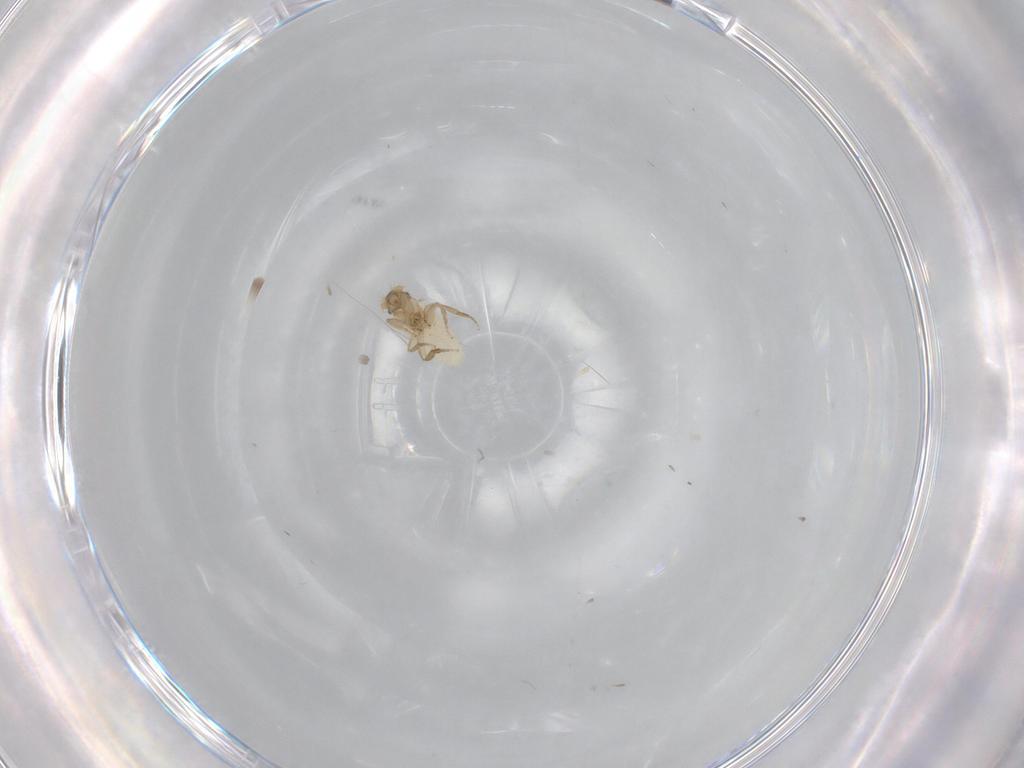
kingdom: Animalia
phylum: Arthropoda
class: Insecta
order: Diptera
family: Phoridae
